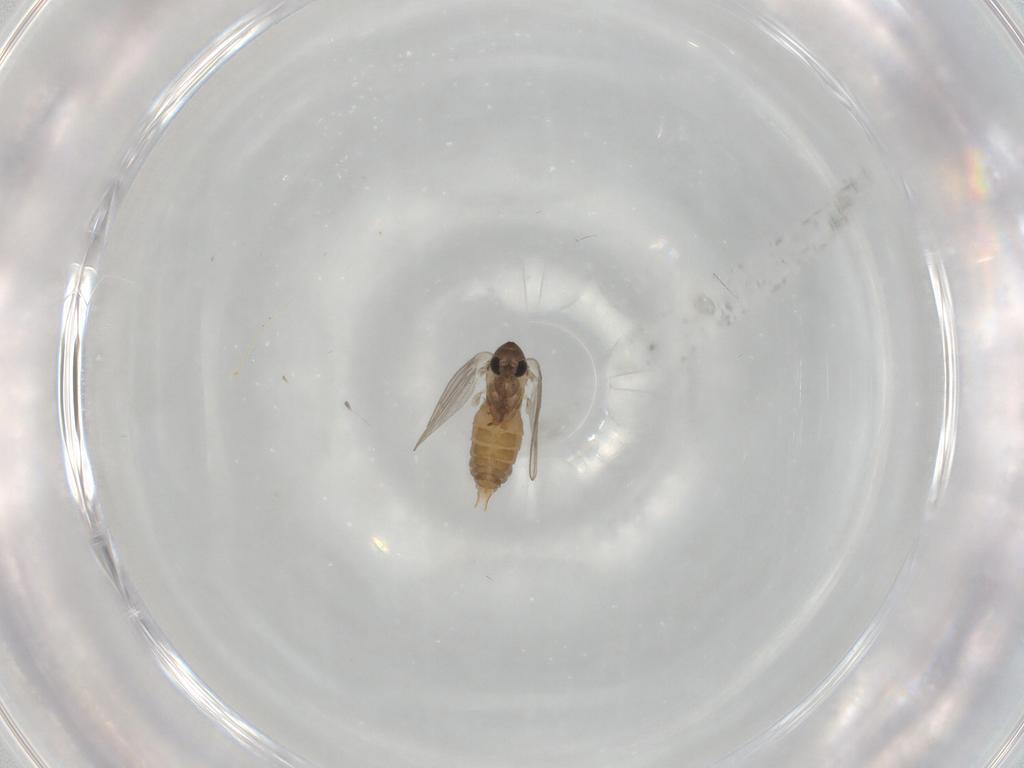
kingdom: Animalia
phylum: Arthropoda
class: Insecta
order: Diptera
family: Psychodidae
